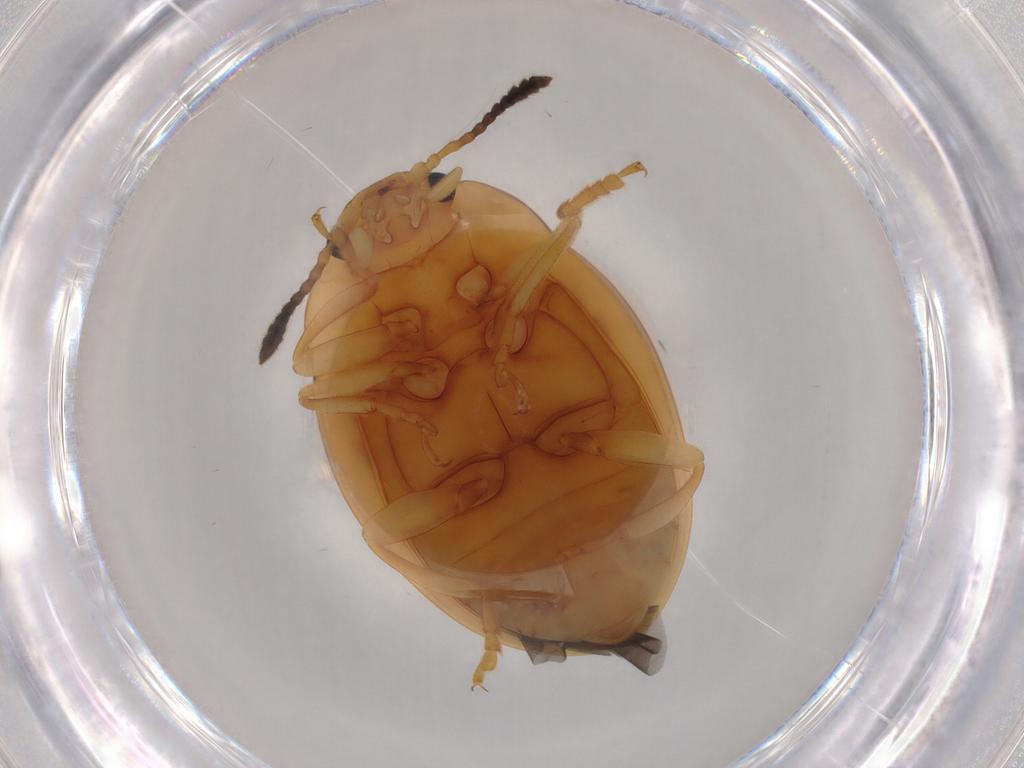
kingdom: Animalia
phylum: Arthropoda
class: Insecta
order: Coleoptera
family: Erotylidae
